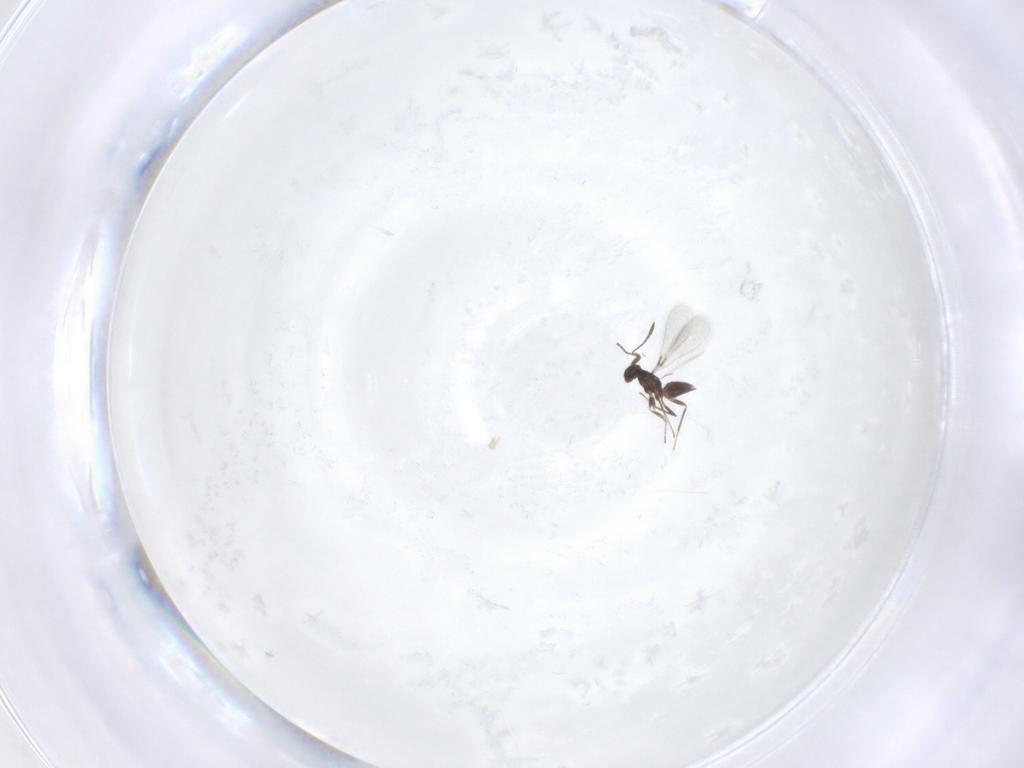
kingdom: Animalia
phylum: Arthropoda
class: Insecta
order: Hymenoptera
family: Mymaridae
